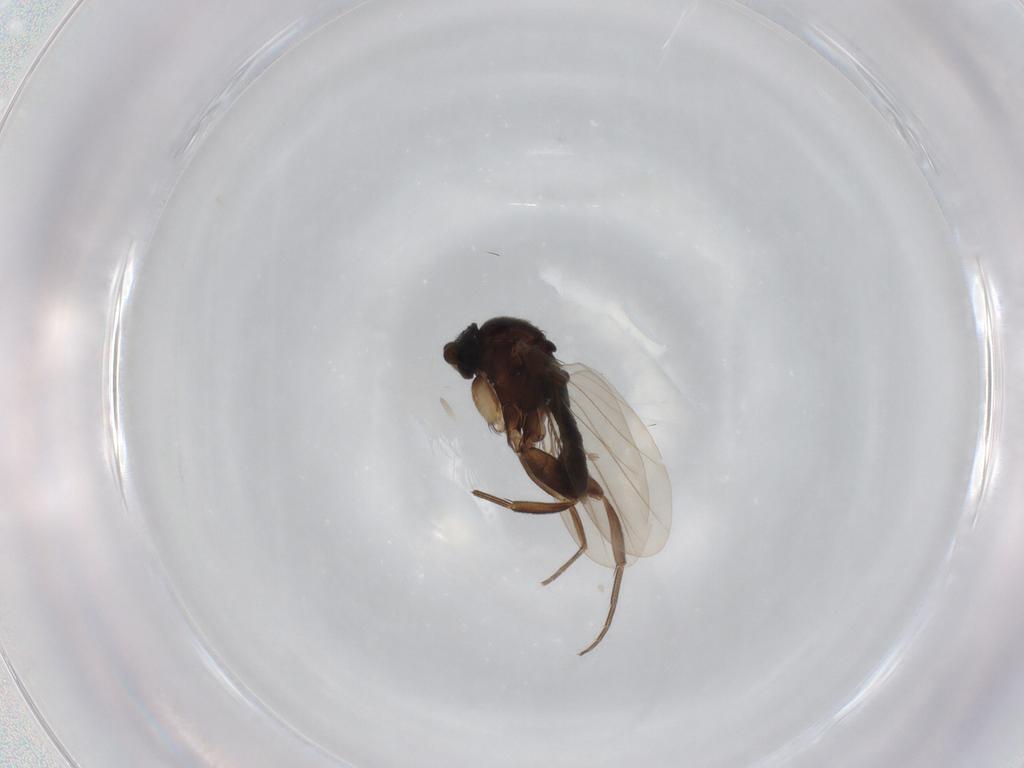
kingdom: Animalia
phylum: Arthropoda
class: Insecta
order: Diptera
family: Phoridae
